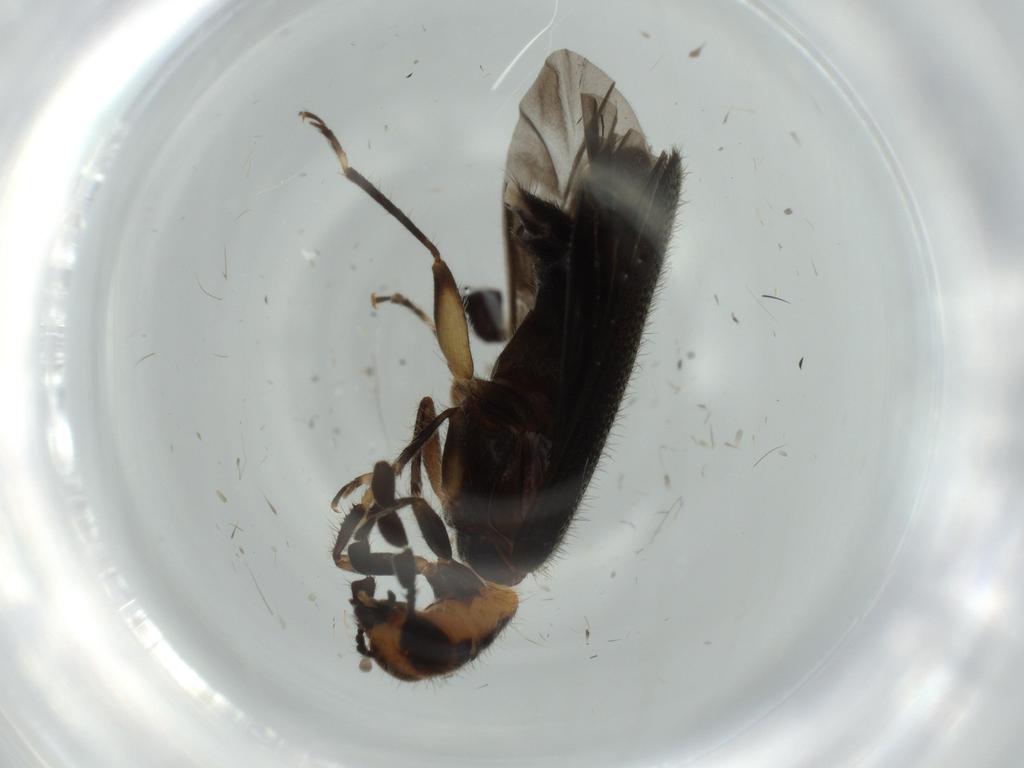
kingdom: Animalia
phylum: Arthropoda
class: Insecta
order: Coleoptera
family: Cleridae
